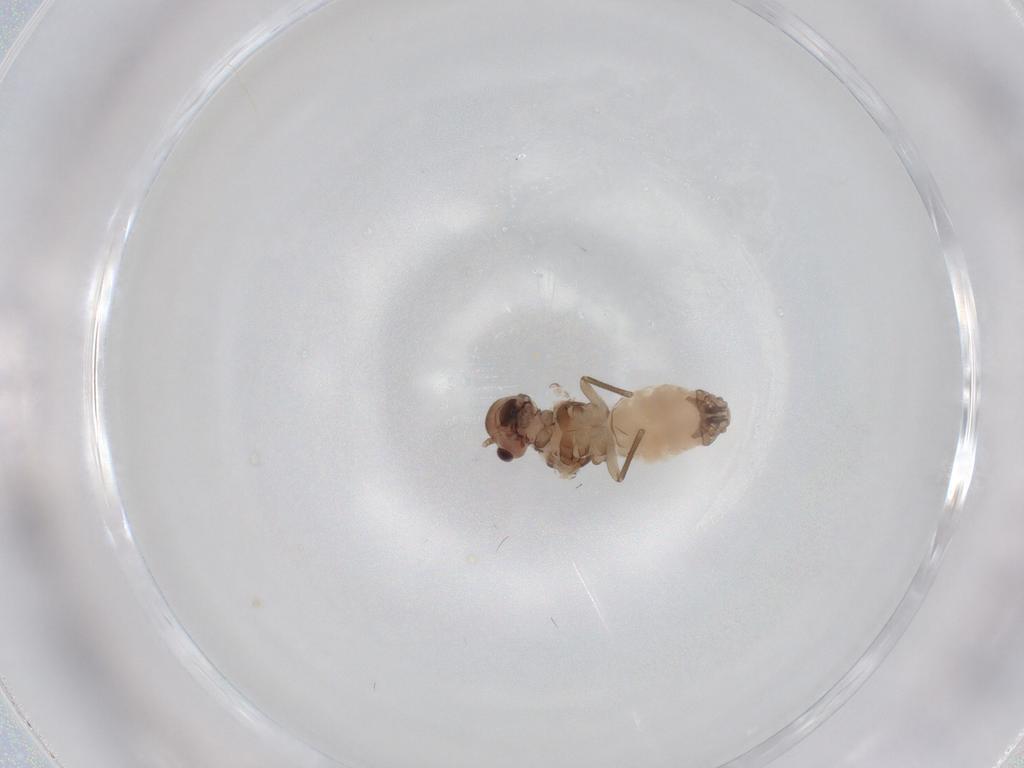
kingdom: Animalia
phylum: Arthropoda
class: Insecta
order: Psocodea
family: Peripsocidae
